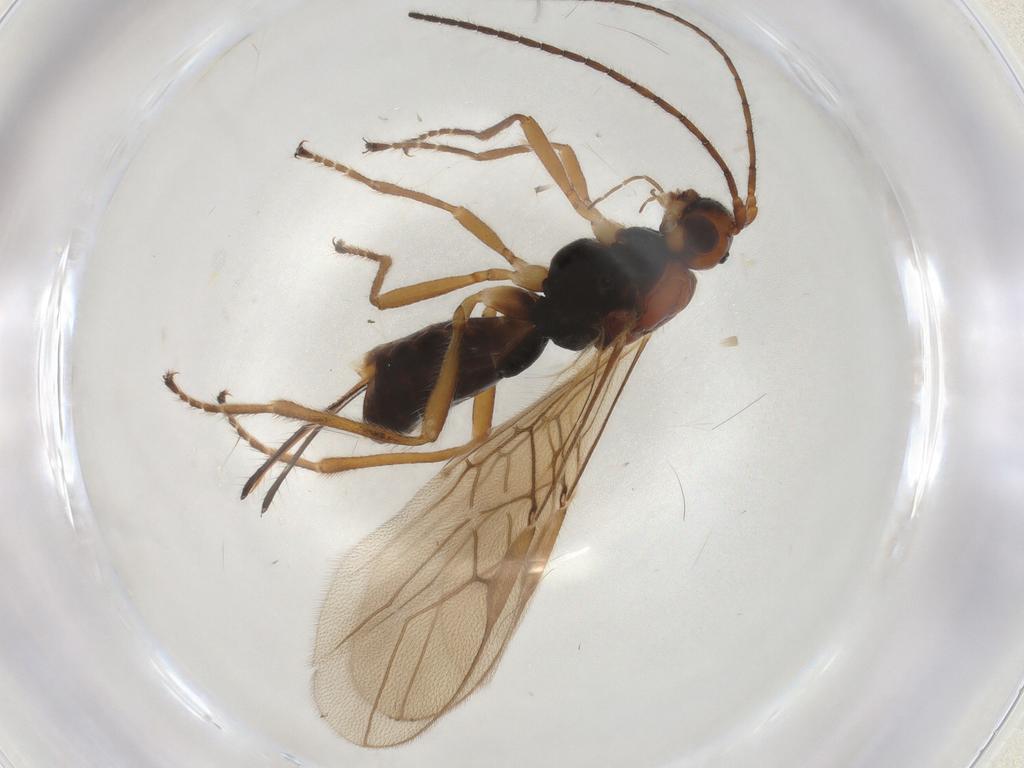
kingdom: Animalia
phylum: Arthropoda
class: Insecta
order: Hymenoptera
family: Braconidae
